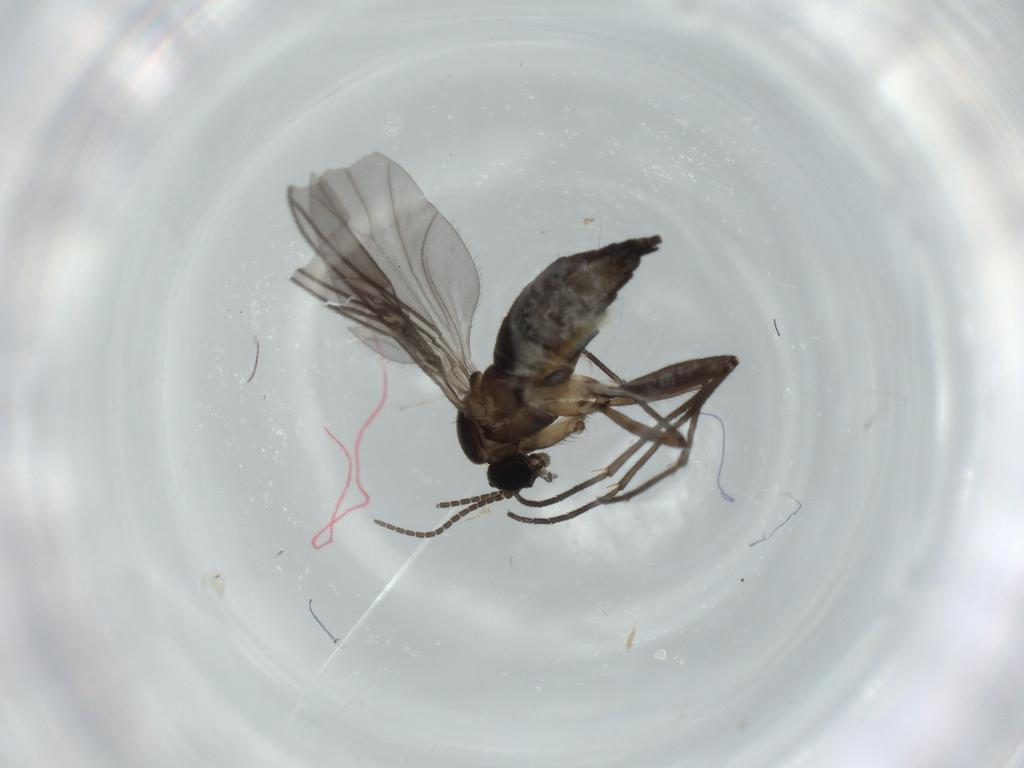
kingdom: Animalia
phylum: Arthropoda
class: Insecta
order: Diptera
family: Sciaridae
